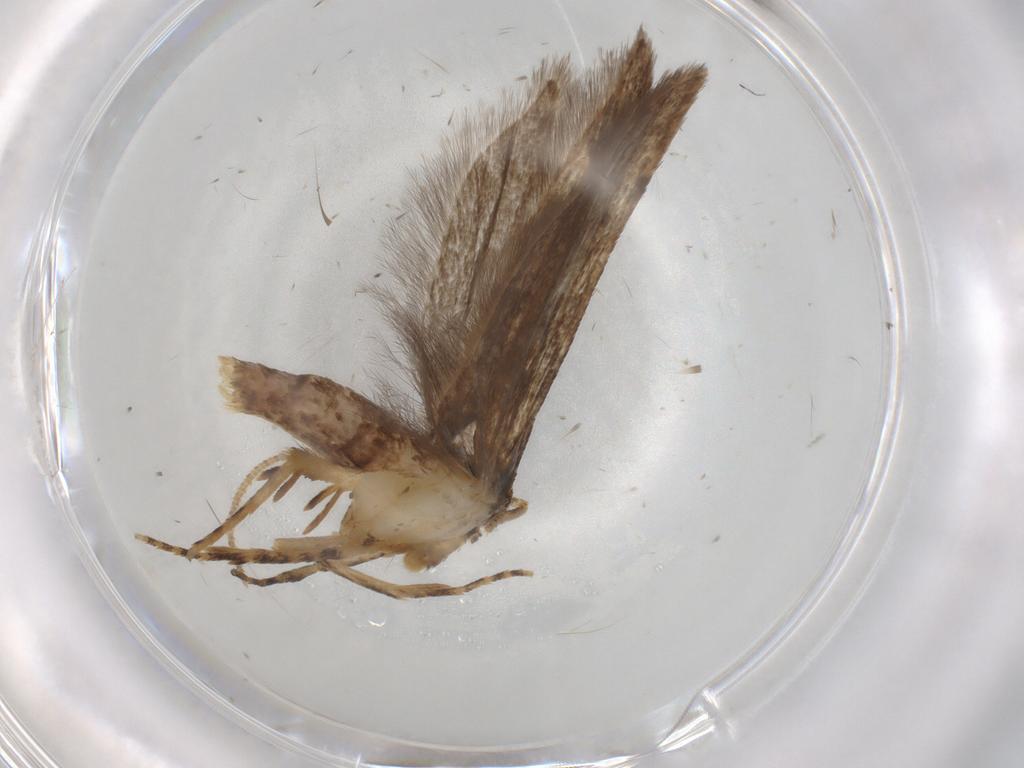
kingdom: Animalia
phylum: Arthropoda
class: Insecta
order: Lepidoptera
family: Plutellidae
